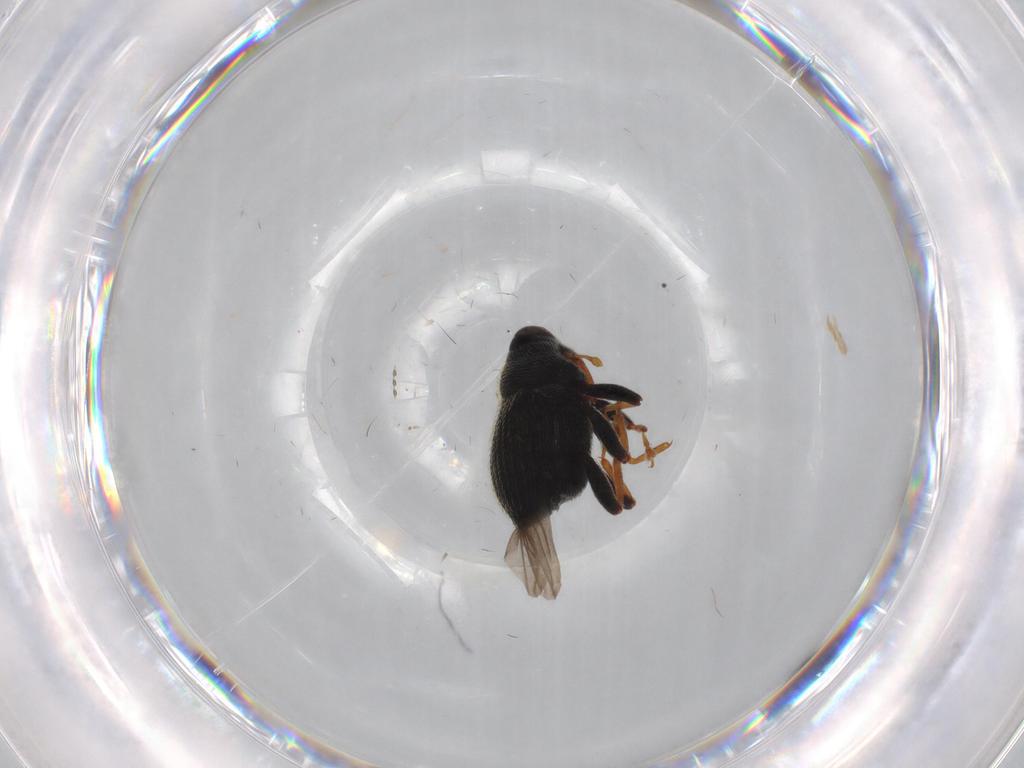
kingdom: Animalia
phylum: Arthropoda
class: Insecta
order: Coleoptera
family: Curculionidae
